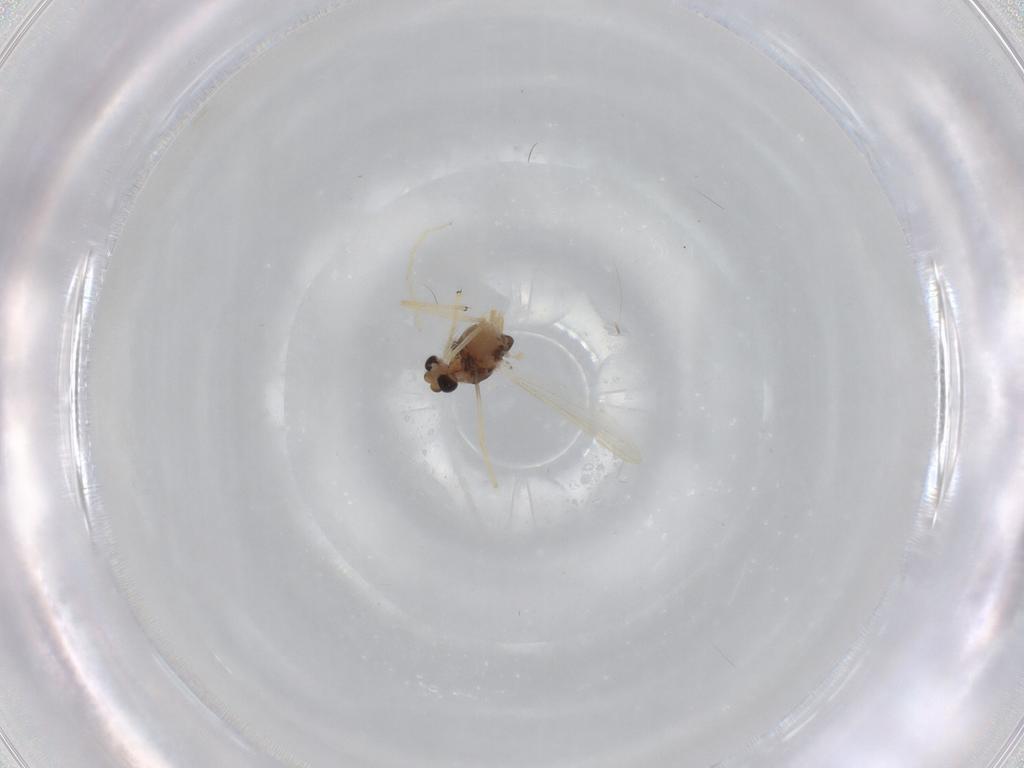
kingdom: Animalia
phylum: Arthropoda
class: Insecta
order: Diptera
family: Chironomidae
